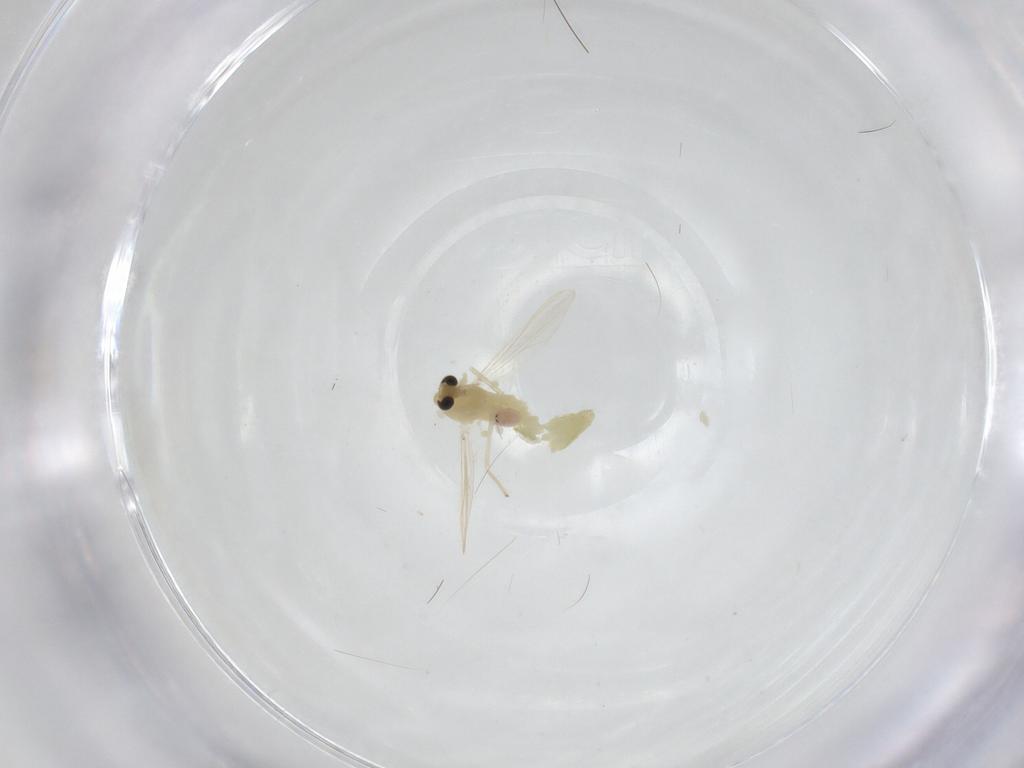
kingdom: Animalia
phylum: Arthropoda
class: Insecta
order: Diptera
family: Chironomidae
